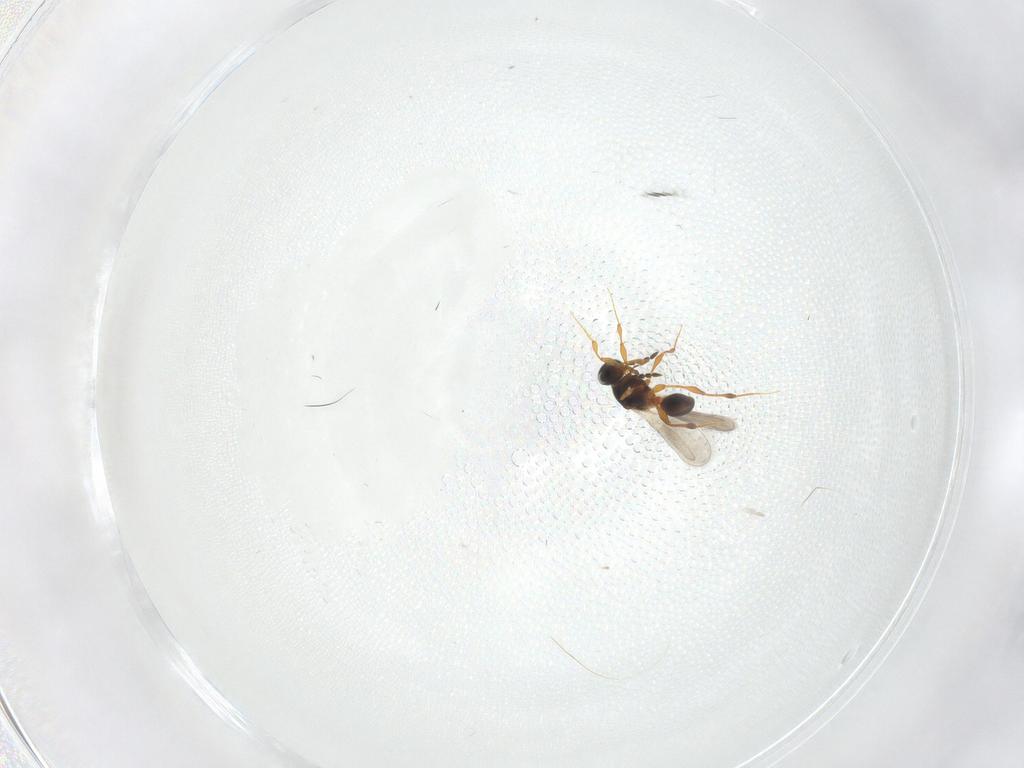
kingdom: Animalia
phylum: Arthropoda
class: Insecta
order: Hymenoptera
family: Platygastridae
